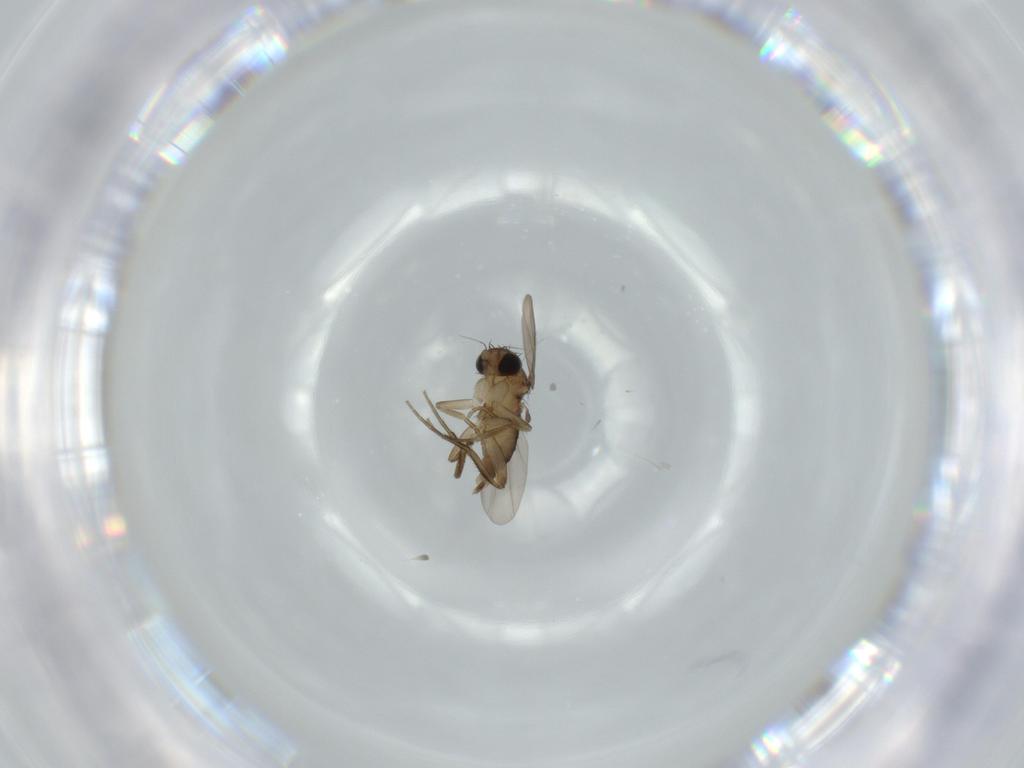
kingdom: Animalia
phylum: Arthropoda
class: Insecta
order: Diptera
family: Phoridae
